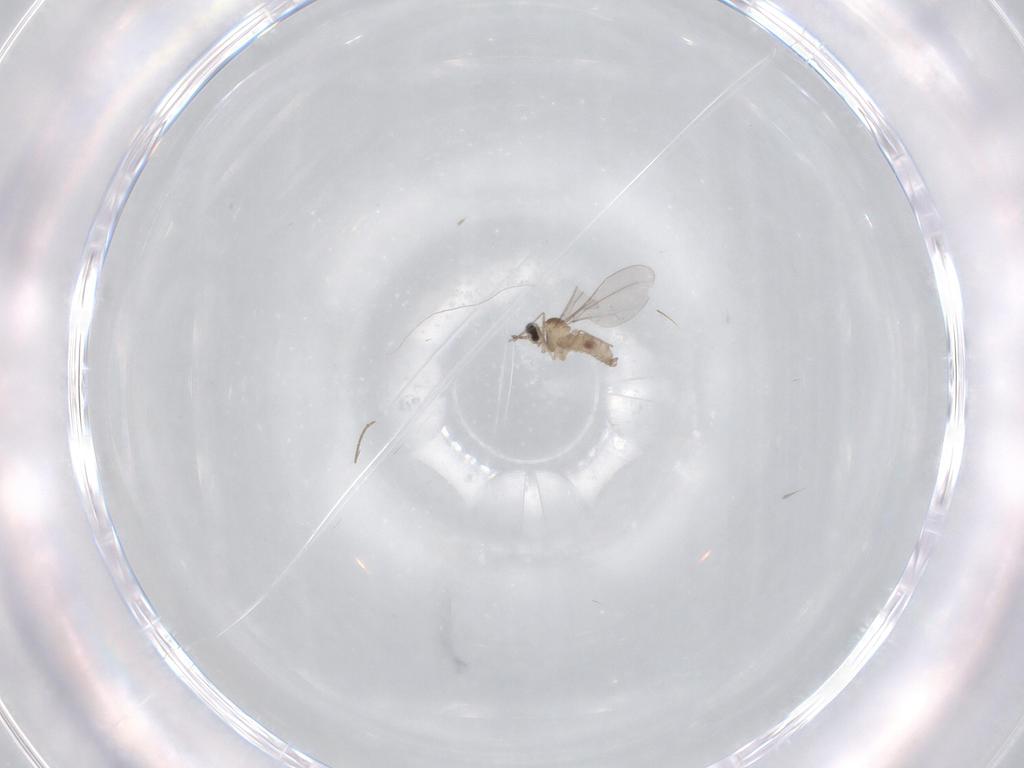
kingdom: Animalia
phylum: Arthropoda
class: Insecta
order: Diptera
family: Cecidomyiidae
